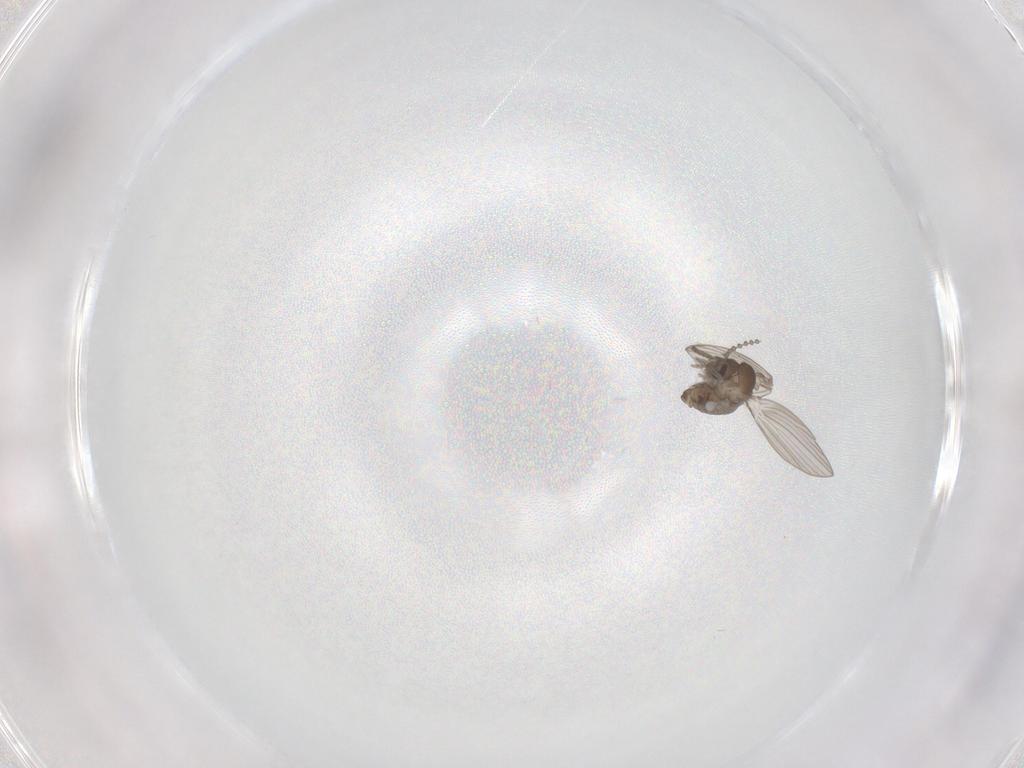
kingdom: Animalia
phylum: Arthropoda
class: Insecta
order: Diptera
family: Psychodidae
